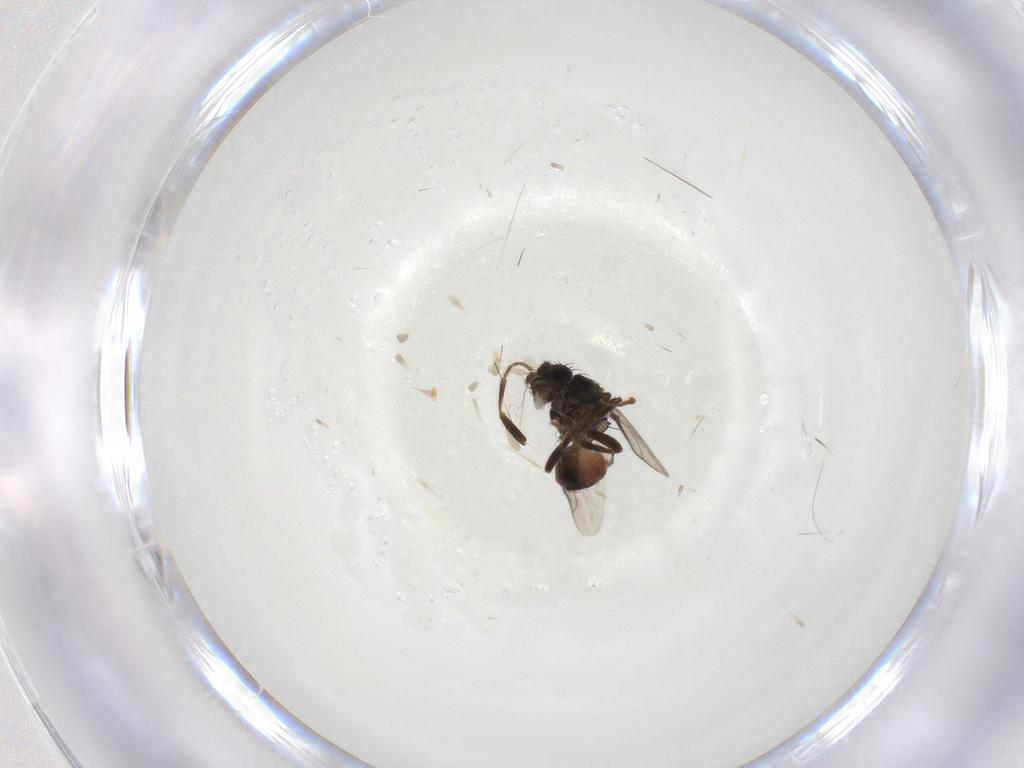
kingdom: Animalia
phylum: Arthropoda
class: Insecta
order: Diptera
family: Sphaeroceridae
